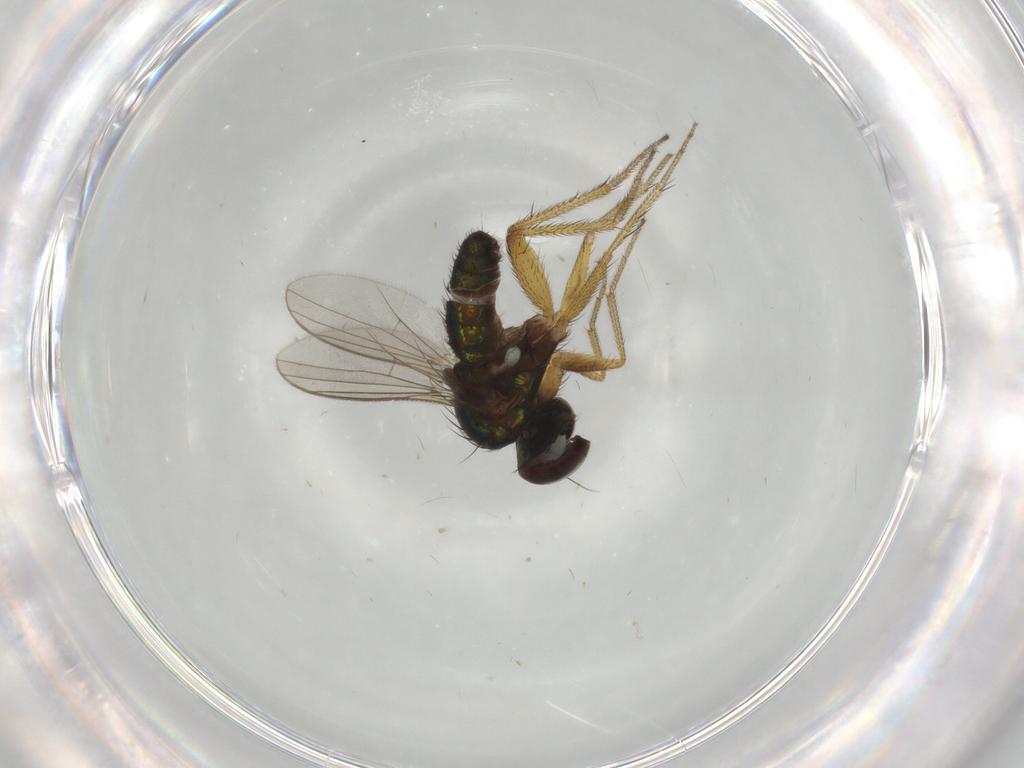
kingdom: Animalia
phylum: Arthropoda
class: Insecta
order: Diptera
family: Dolichopodidae
